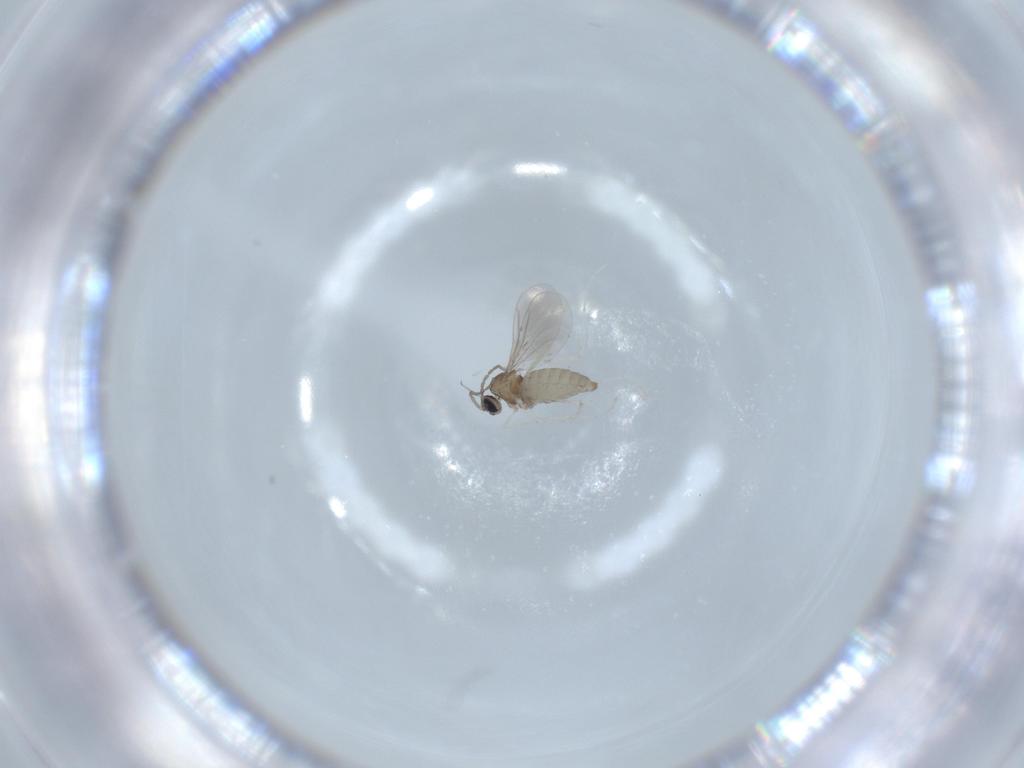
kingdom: Animalia
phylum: Arthropoda
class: Insecta
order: Diptera
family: Cecidomyiidae
